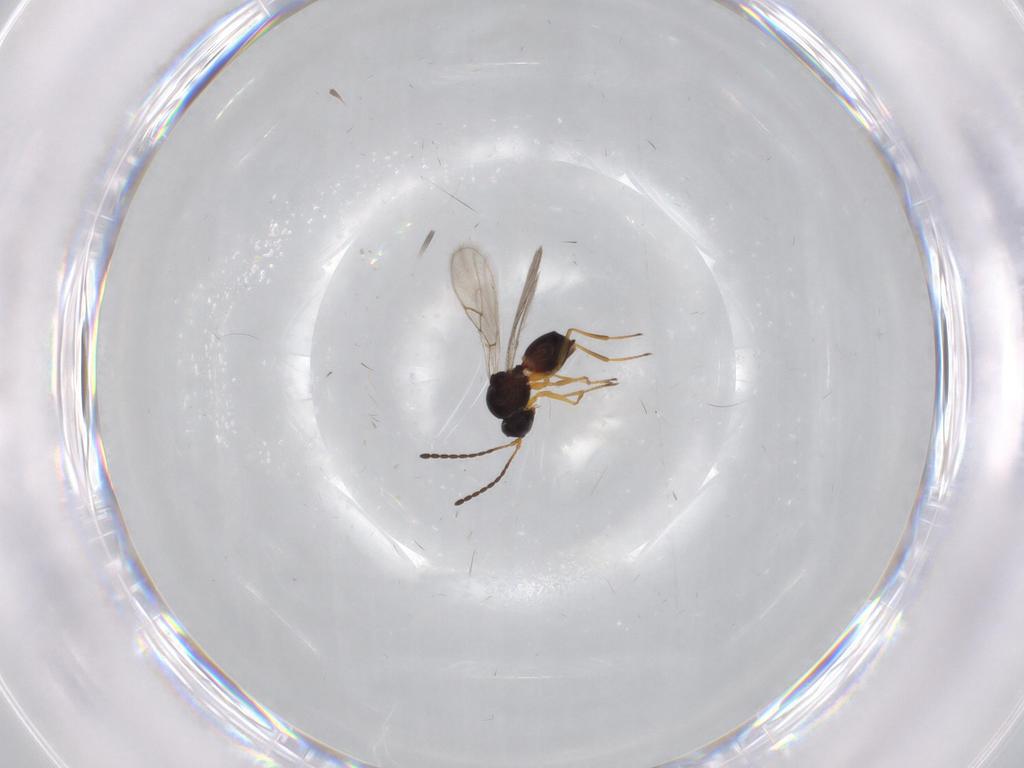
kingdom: Animalia
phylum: Arthropoda
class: Insecta
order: Hymenoptera
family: Figitidae
